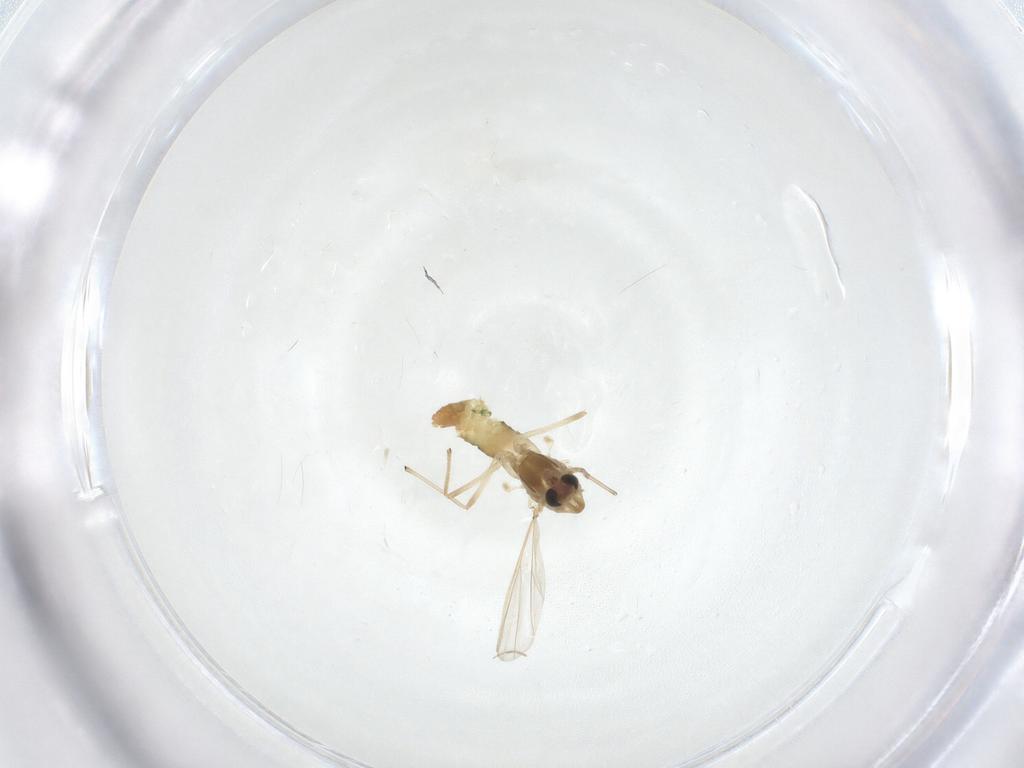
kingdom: Animalia
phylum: Arthropoda
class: Insecta
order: Diptera
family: Chironomidae
